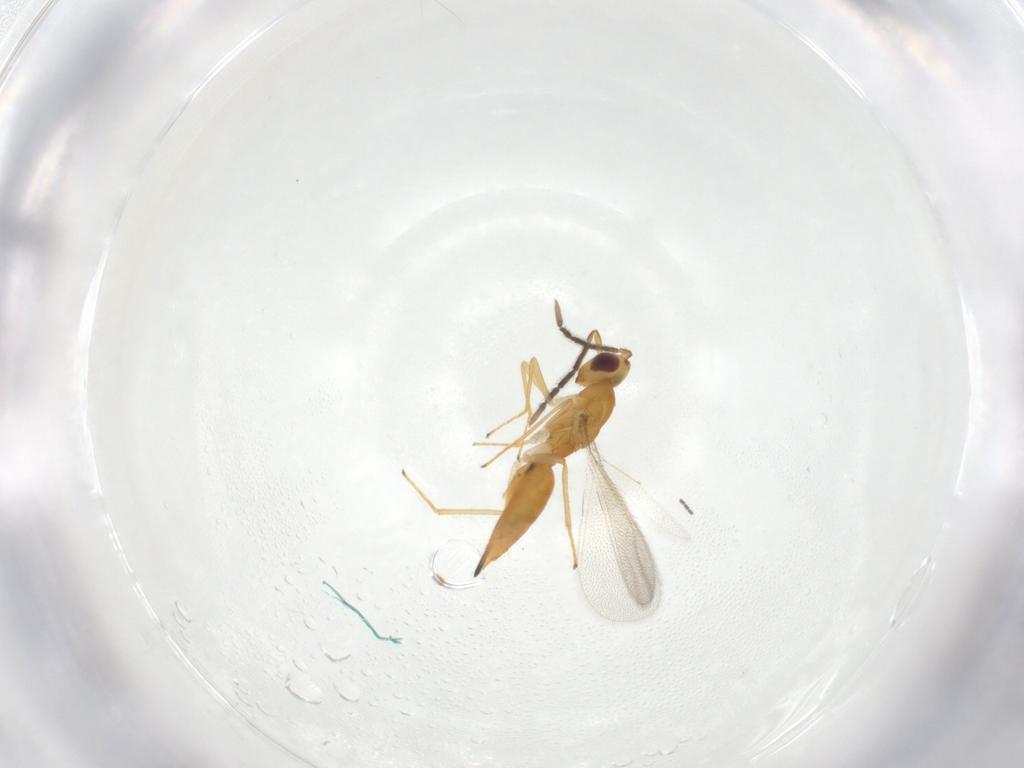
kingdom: Animalia
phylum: Arthropoda
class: Insecta
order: Hymenoptera
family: Eulophidae
